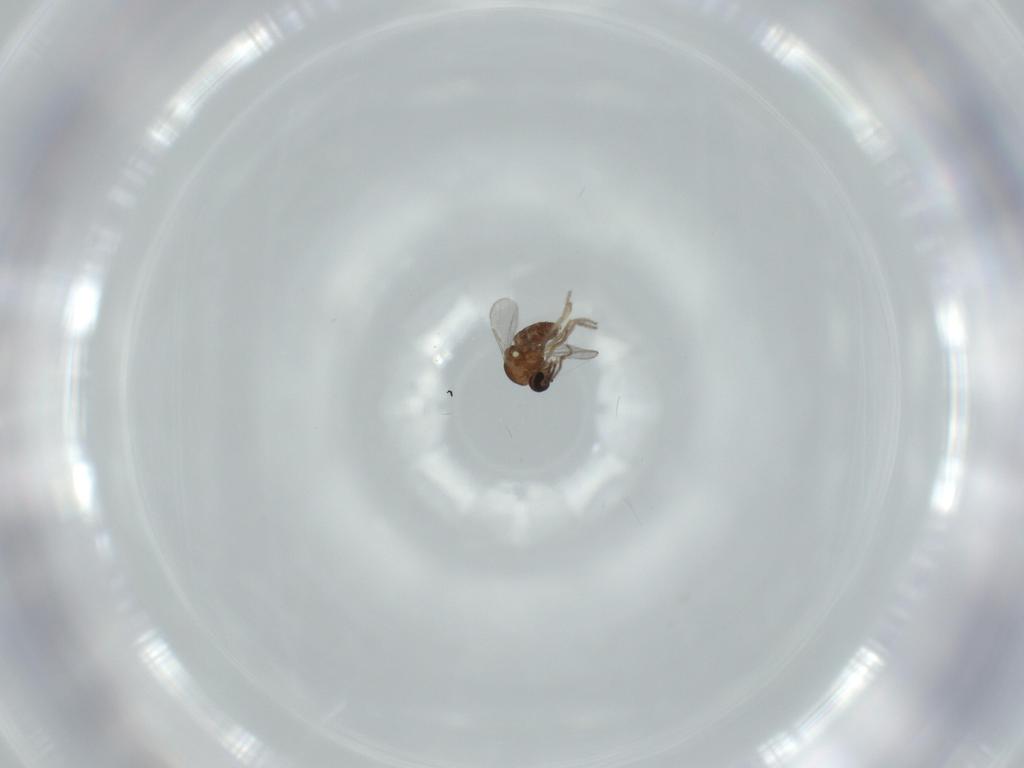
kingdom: Animalia
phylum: Arthropoda
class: Insecta
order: Diptera
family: Ceratopogonidae
